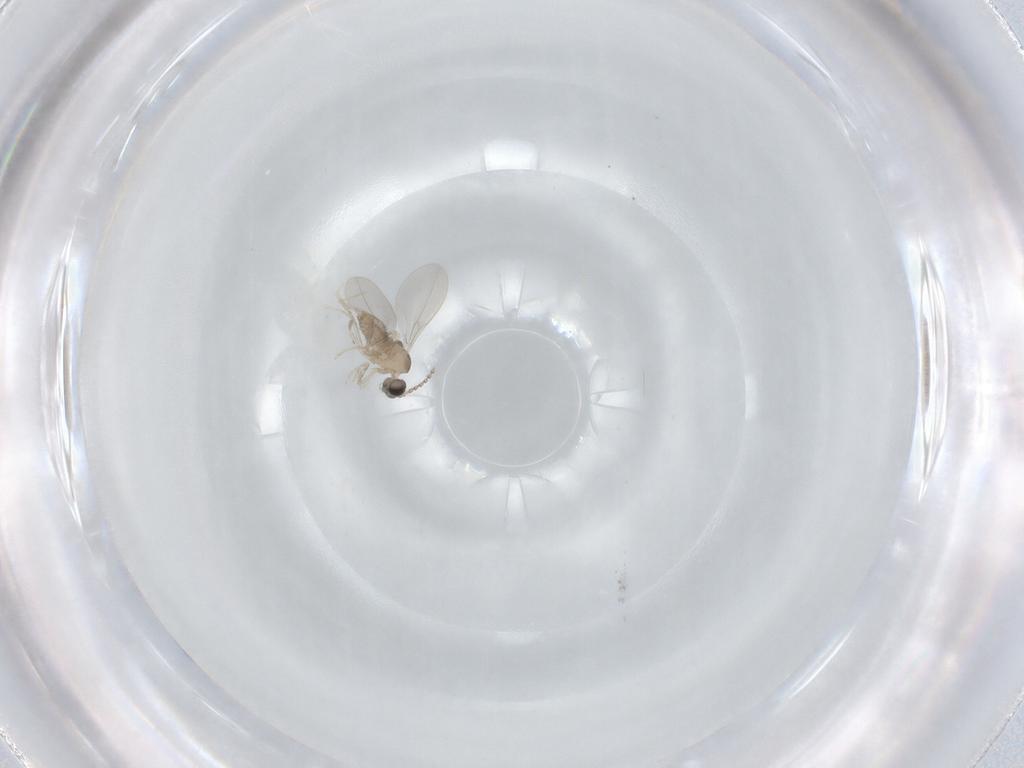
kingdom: Animalia
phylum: Arthropoda
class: Insecta
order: Diptera
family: Cecidomyiidae
